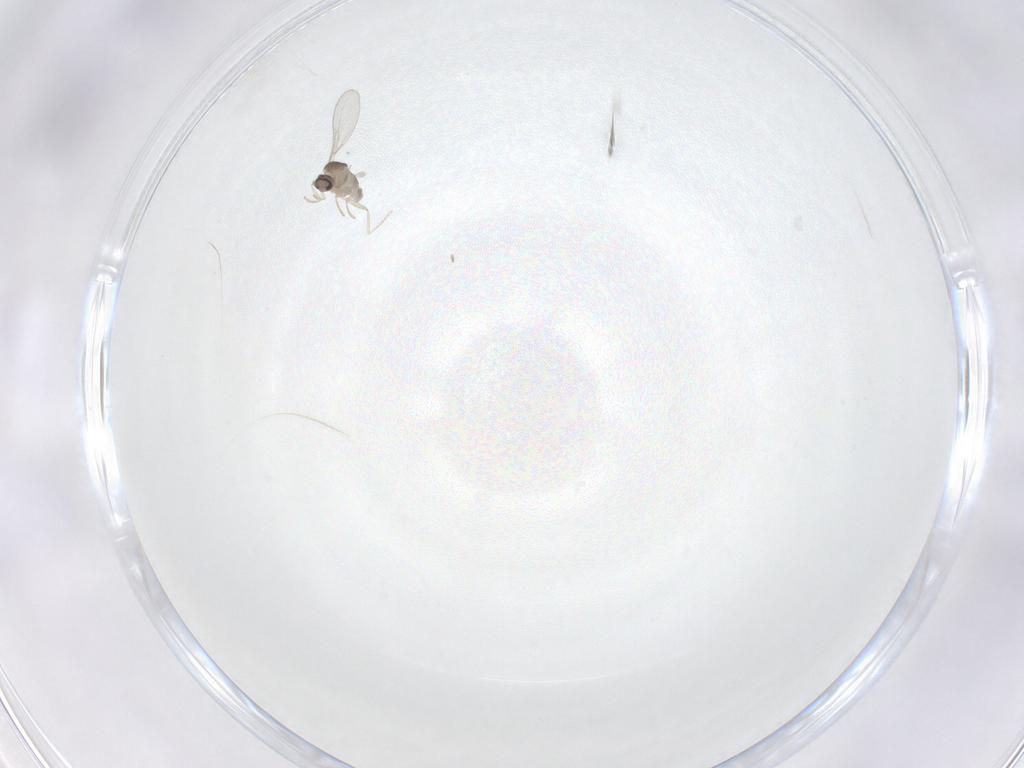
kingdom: Animalia
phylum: Arthropoda
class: Insecta
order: Diptera
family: Cecidomyiidae
